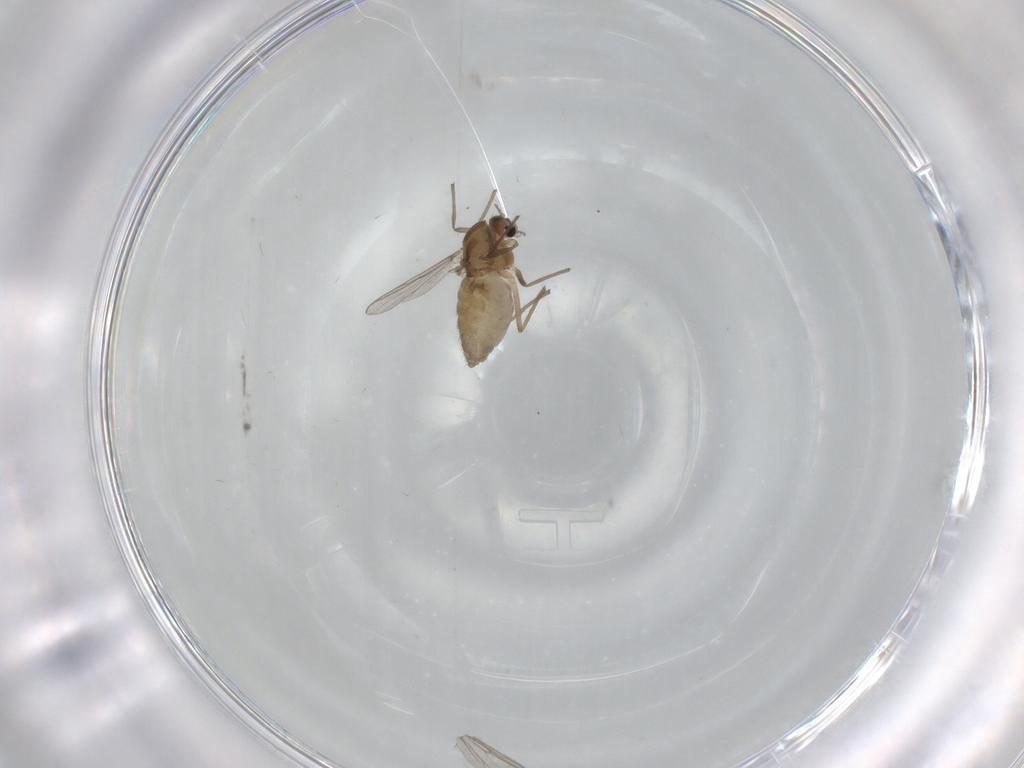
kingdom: Animalia
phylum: Arthropoda
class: Insecta
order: Diptera
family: Chironomidae
